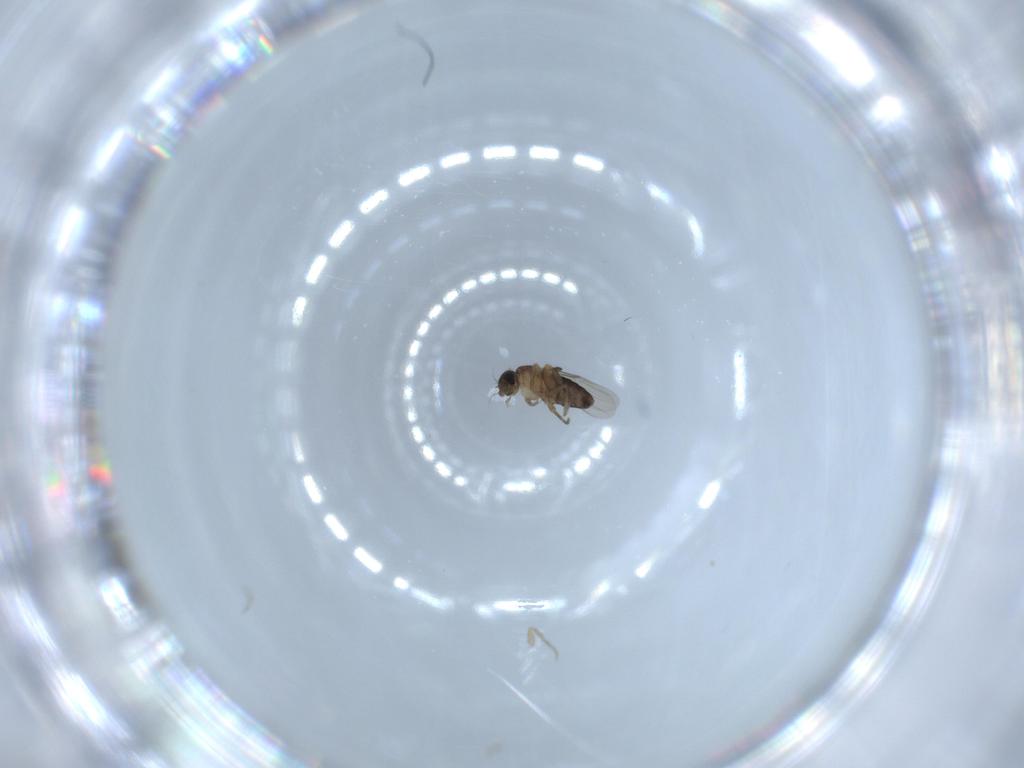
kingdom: Animalia
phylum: Arthropoda
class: Insecta
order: Diptera
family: Phoridae
